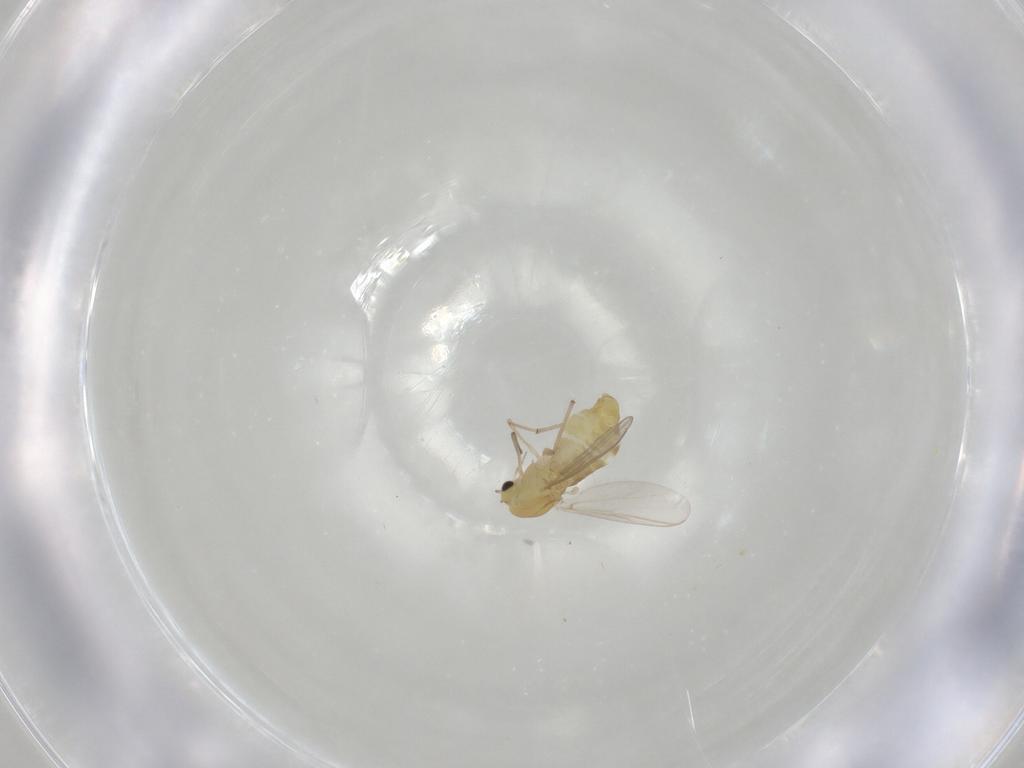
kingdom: Animalia
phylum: Arthropoda
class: Insecta
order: Diptera
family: Chironomidae
